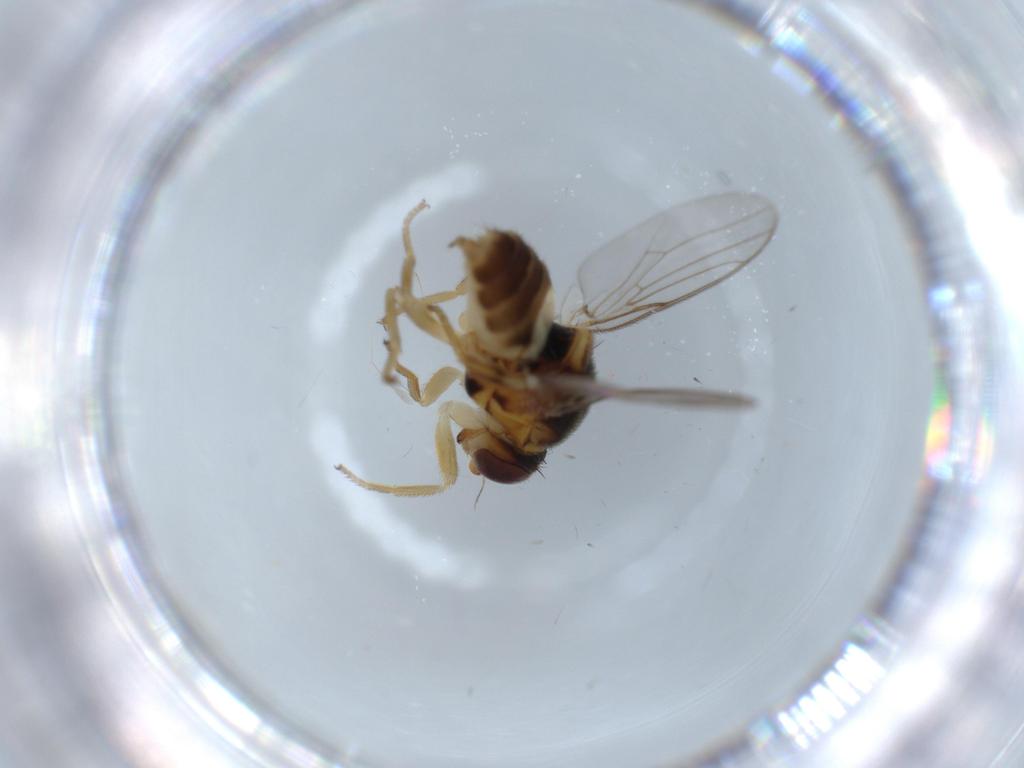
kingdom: Animalia
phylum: Arthropoda
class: Insecta
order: Diptera
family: Chloropidae
